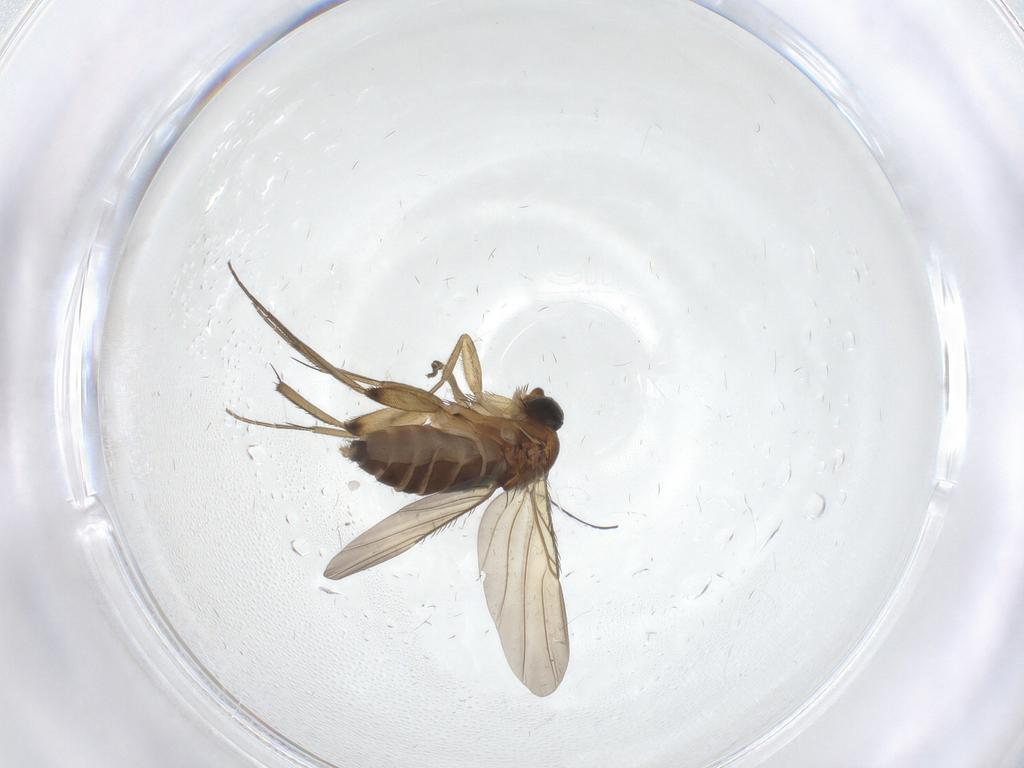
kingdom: Animalia
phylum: Arthropoda
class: Insecta
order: Diptera
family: Phoridae
